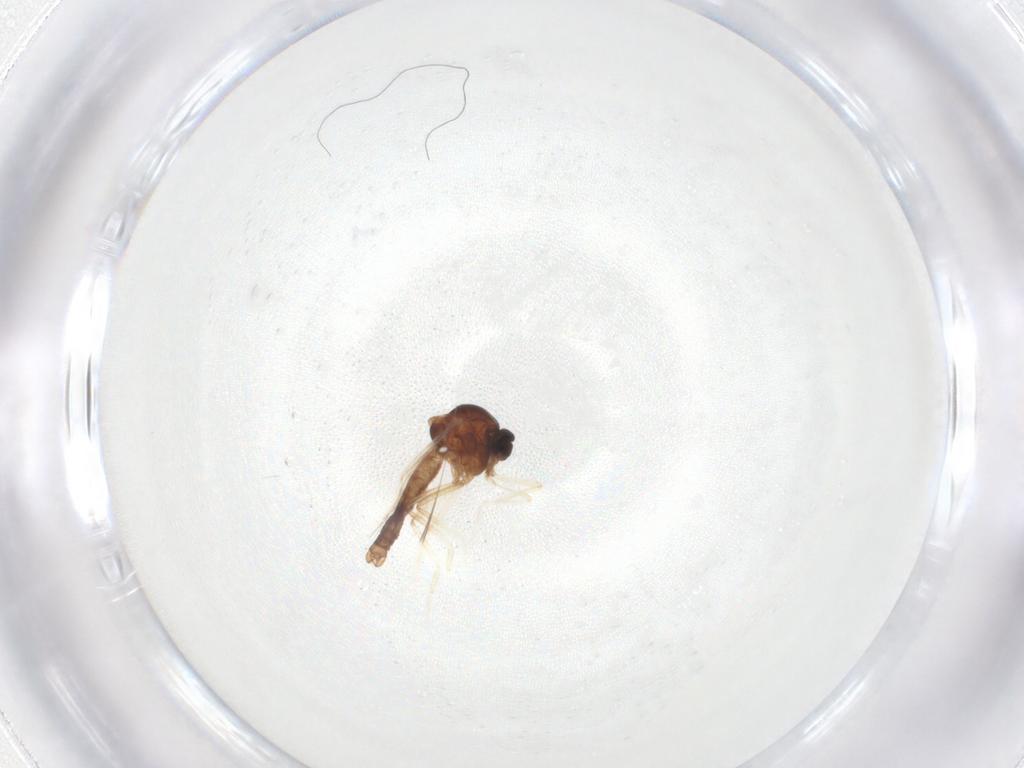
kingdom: Animalia
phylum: Arthropoda
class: Insecta
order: Diptera
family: Ceratopogonidae
